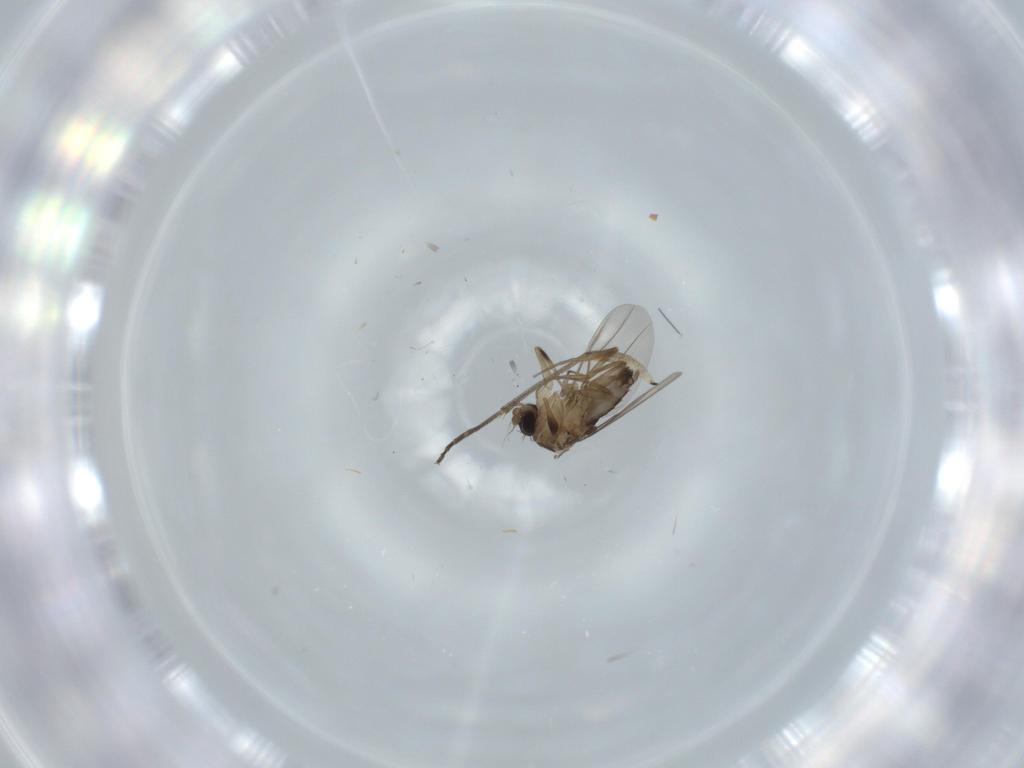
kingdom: Animalia
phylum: Arthropoda
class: Insecta
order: Diptera
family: Phoridae
